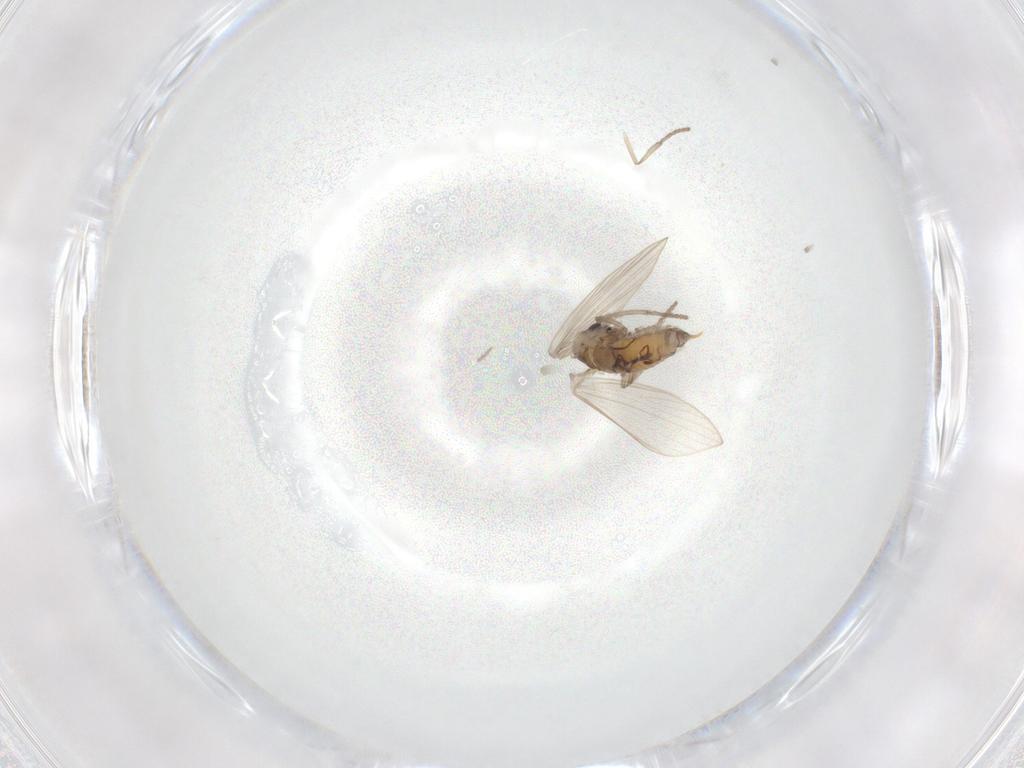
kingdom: Animalia
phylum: Arthropoda
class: Insecta
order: Diptera
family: Psychodidae
